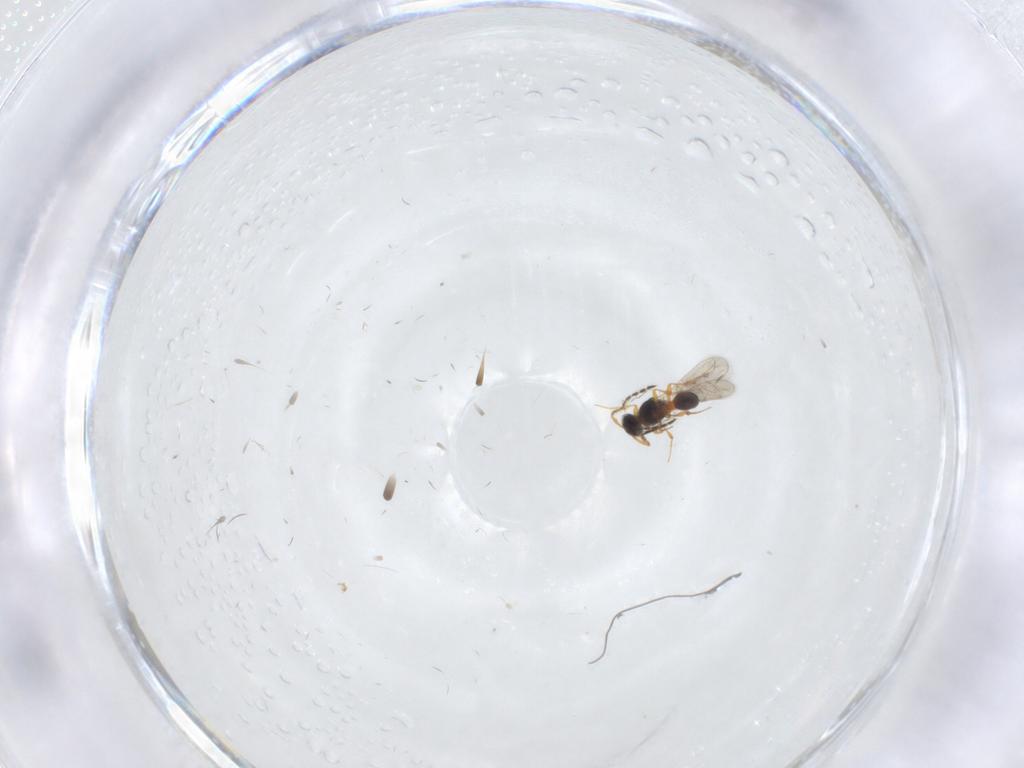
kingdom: Animalia
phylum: Arthropoda
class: Insecta
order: Hymenoptera
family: Platygastridae
